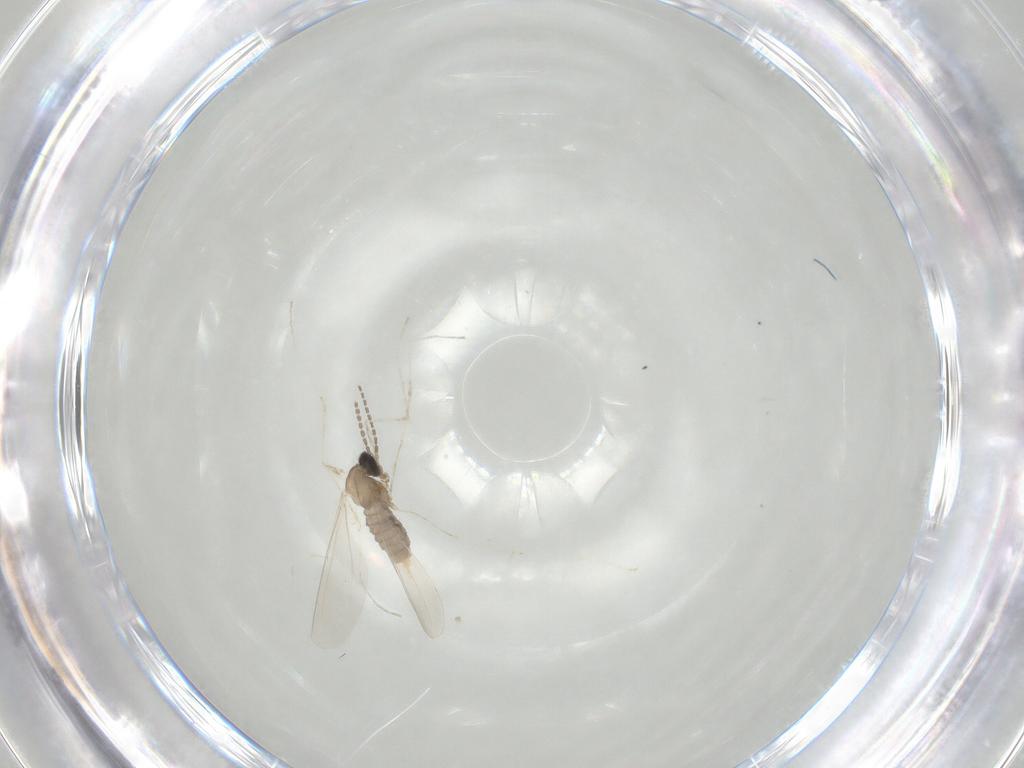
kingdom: Animalia
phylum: Arthropoda
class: Insecta
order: Diptera
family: Cecidomyiidae
